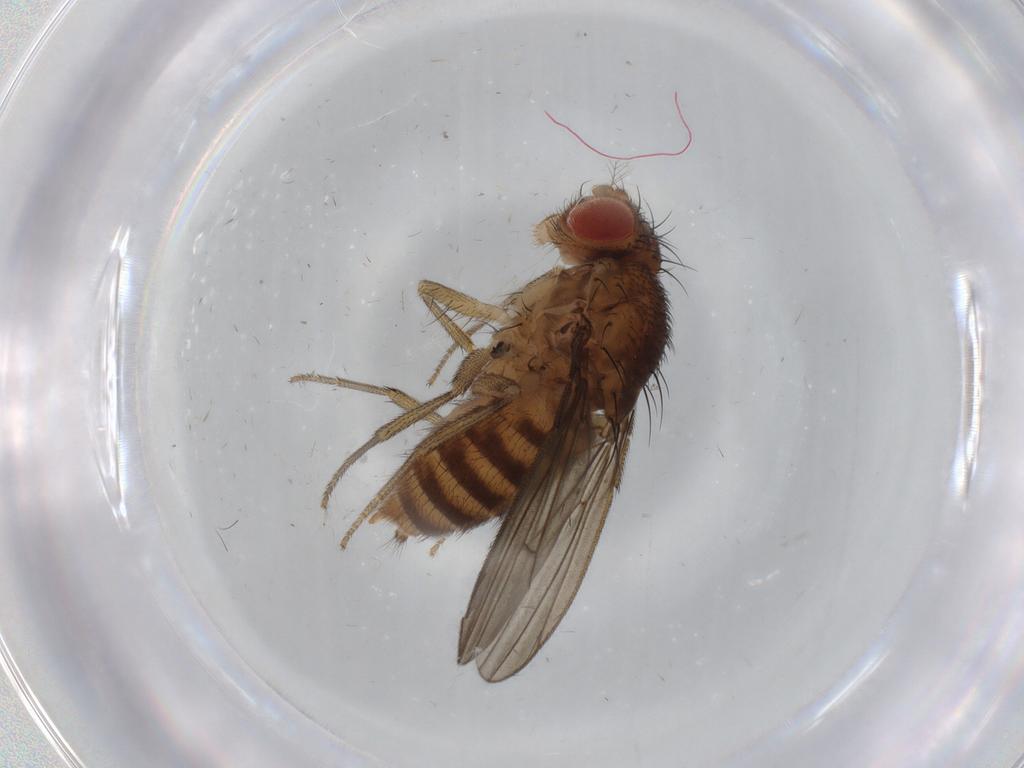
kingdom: Animalia
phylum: Arthropoda
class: Insecta
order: Diptera
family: Drosophilidae
